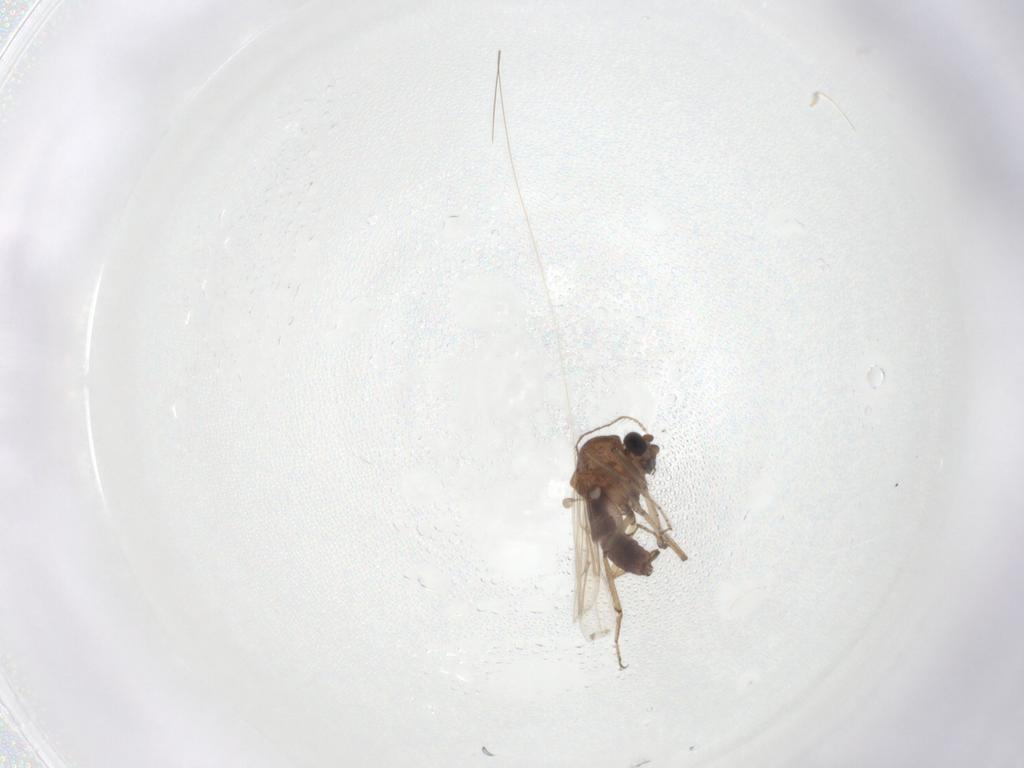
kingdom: Animalia
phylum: Arthropoda
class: Insecta
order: Diptera
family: Ceratopogonidae
